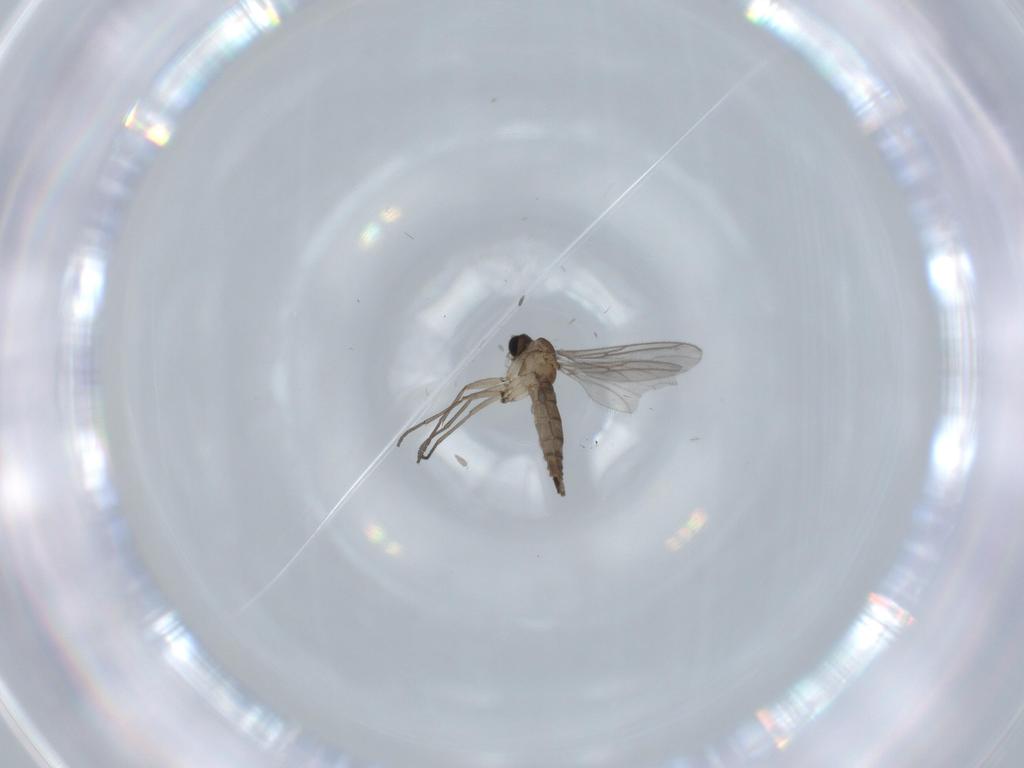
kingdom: Animalia
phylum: Arthropoda
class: Insecta
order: Diptera
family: Sciaridae
